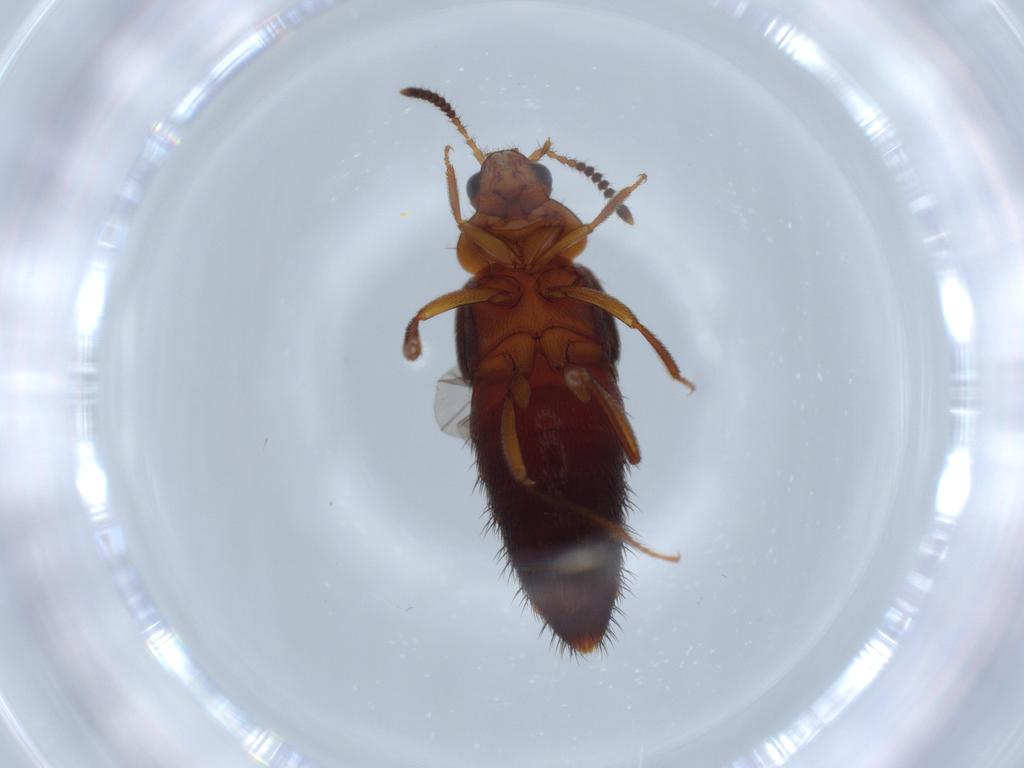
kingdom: Animalia
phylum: Arthropoda
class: Insecta
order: Coleoptera
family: Staphylinidae
